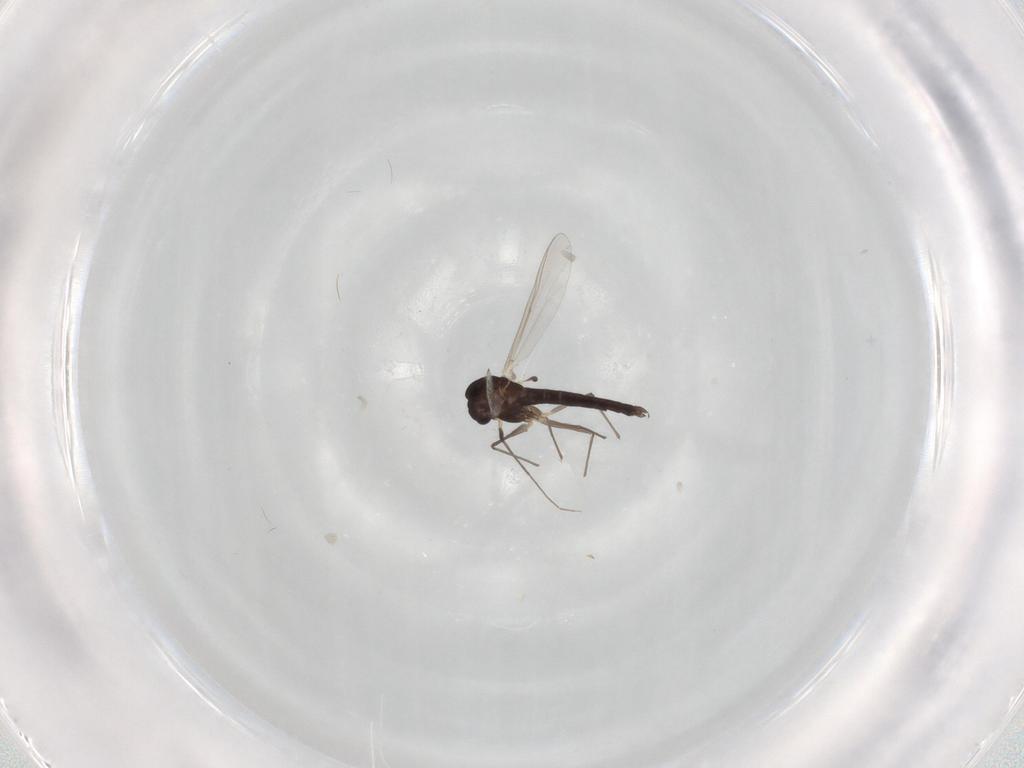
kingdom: Animalia
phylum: Arthropoda
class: Insecta
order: Diptera
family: Chironomidae
